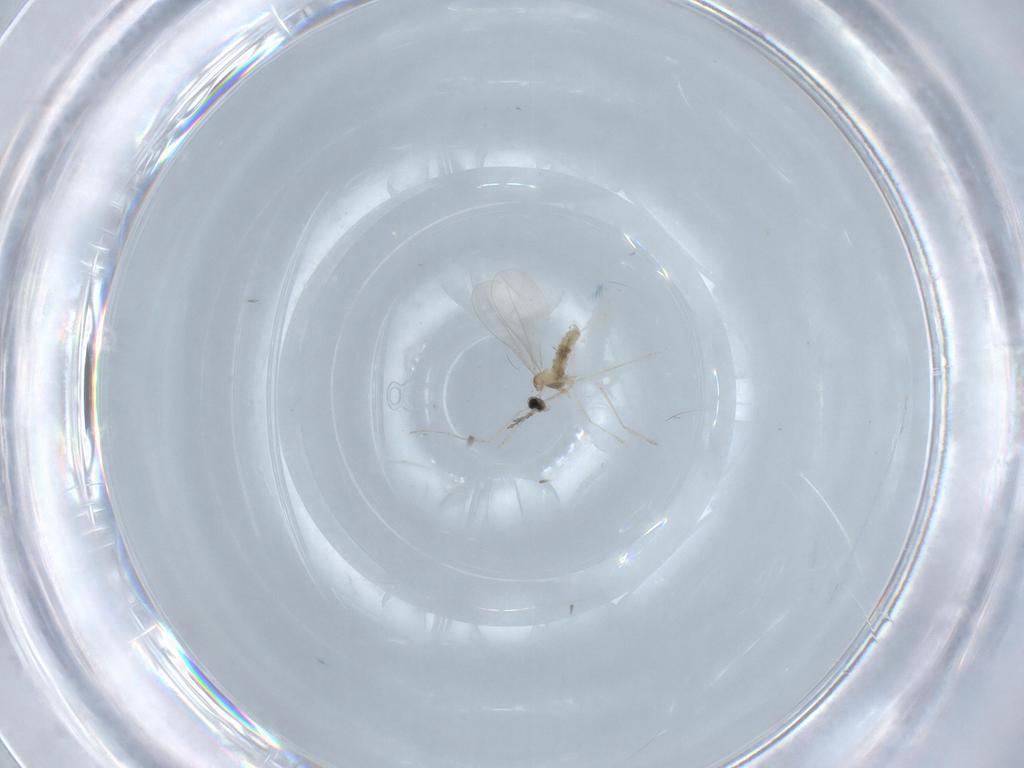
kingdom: Animalia
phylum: Arthropoda
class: Insecta
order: Diptera
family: Cecidomyiidae
